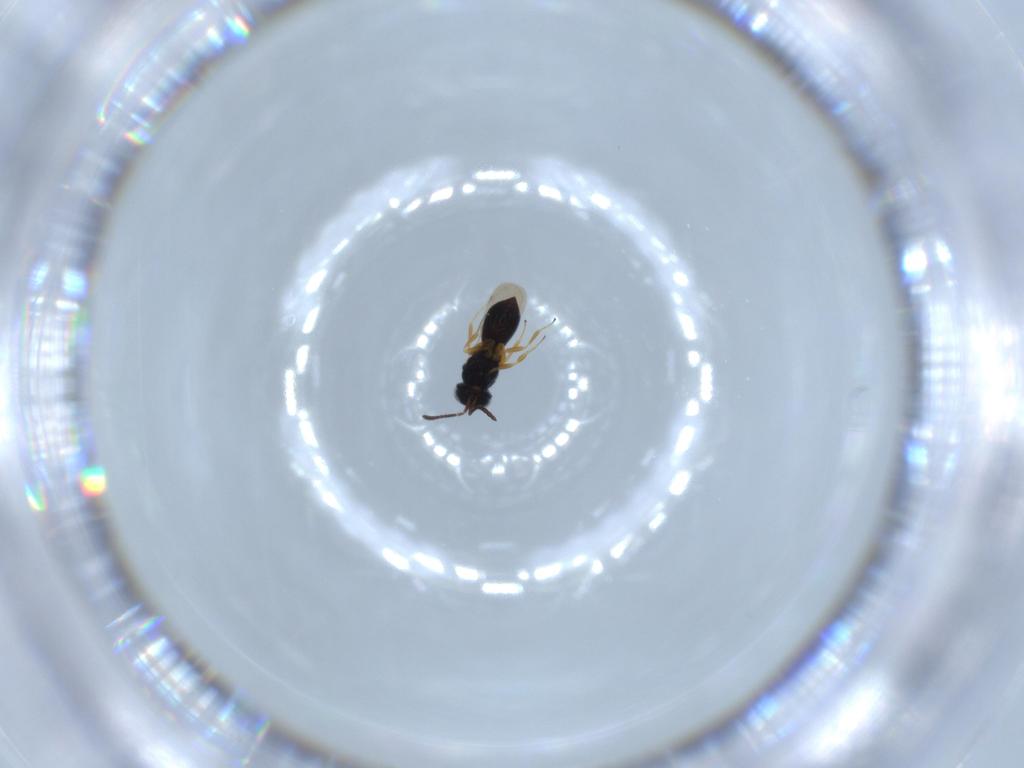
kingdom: Animalia
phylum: Arthropoda
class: Insecta
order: Hymenoptera
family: Scelionidae
